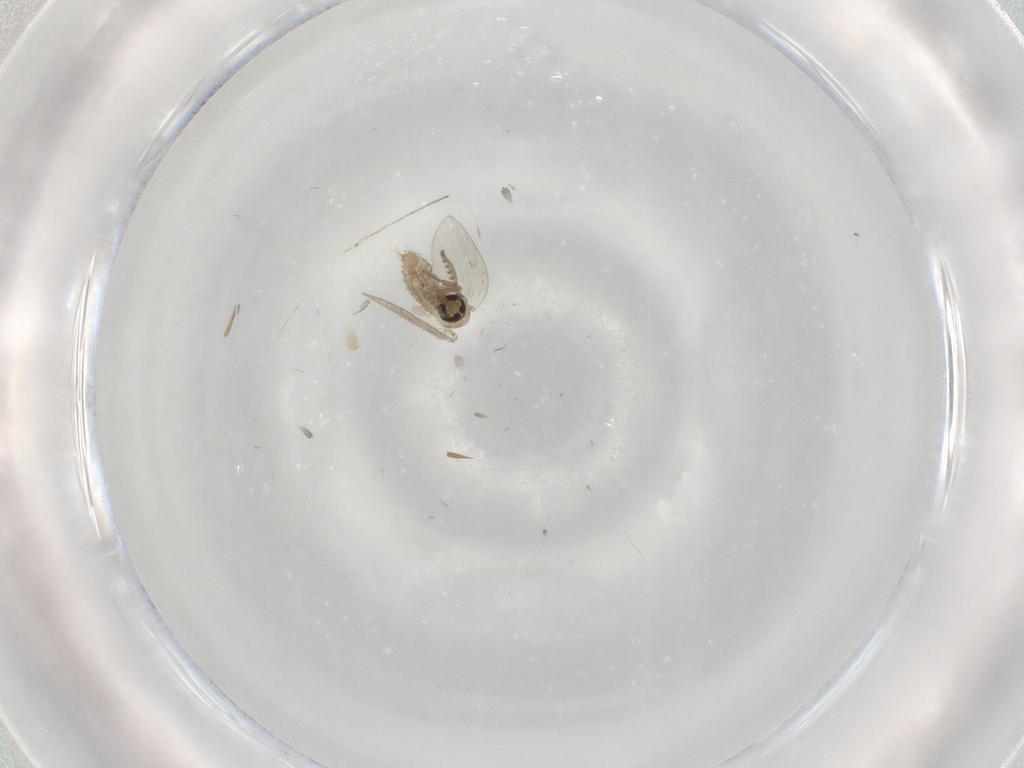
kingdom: Animalia
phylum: Arthropoda
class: Insecta
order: Diptera
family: Psychodidae
